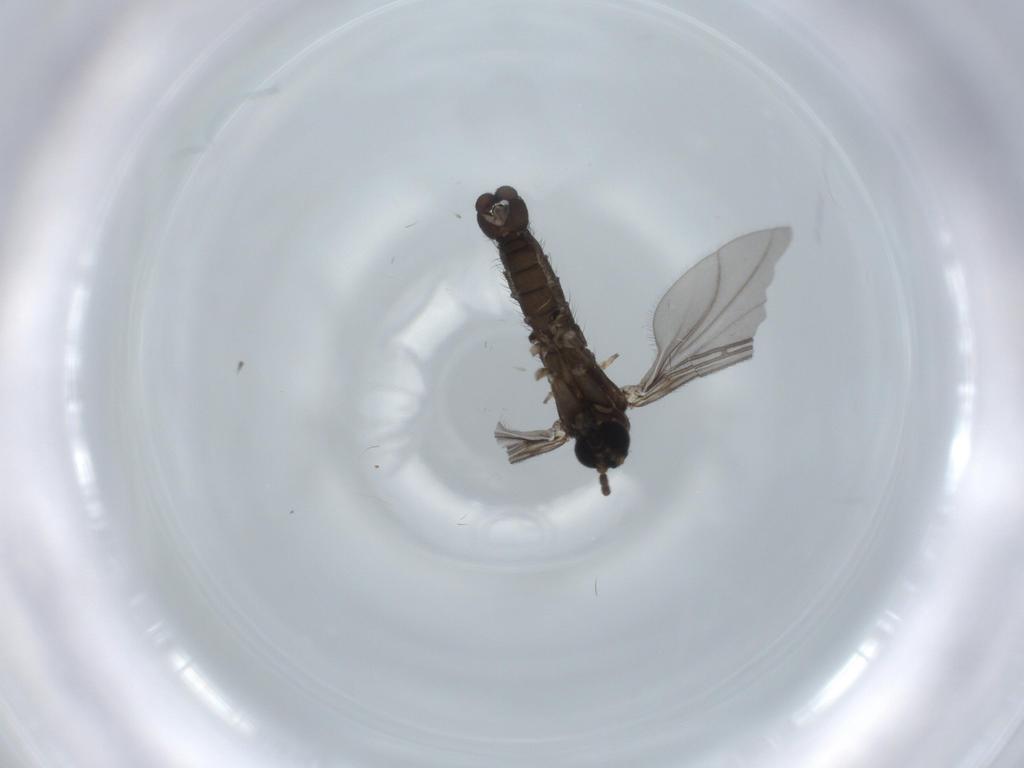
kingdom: Animalia
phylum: Arthropoda
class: Insecta
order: Diptera
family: Sciaridae
